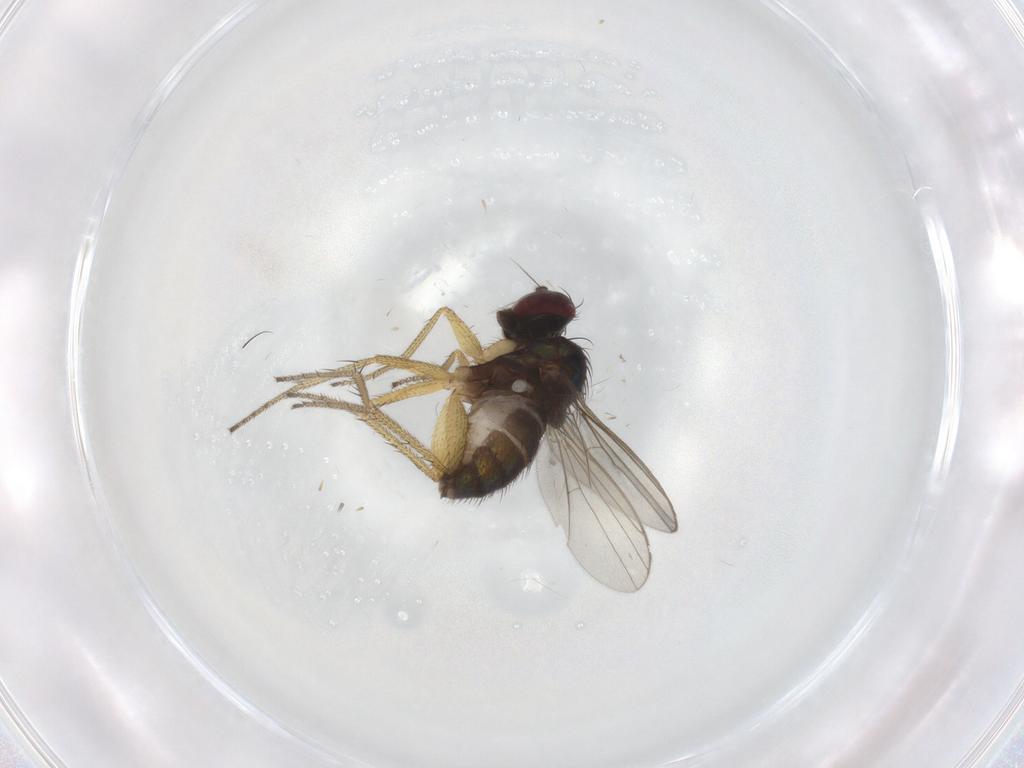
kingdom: Animalia
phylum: Arthropoda
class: Insecta
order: Diptera
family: Dolichopodidae
